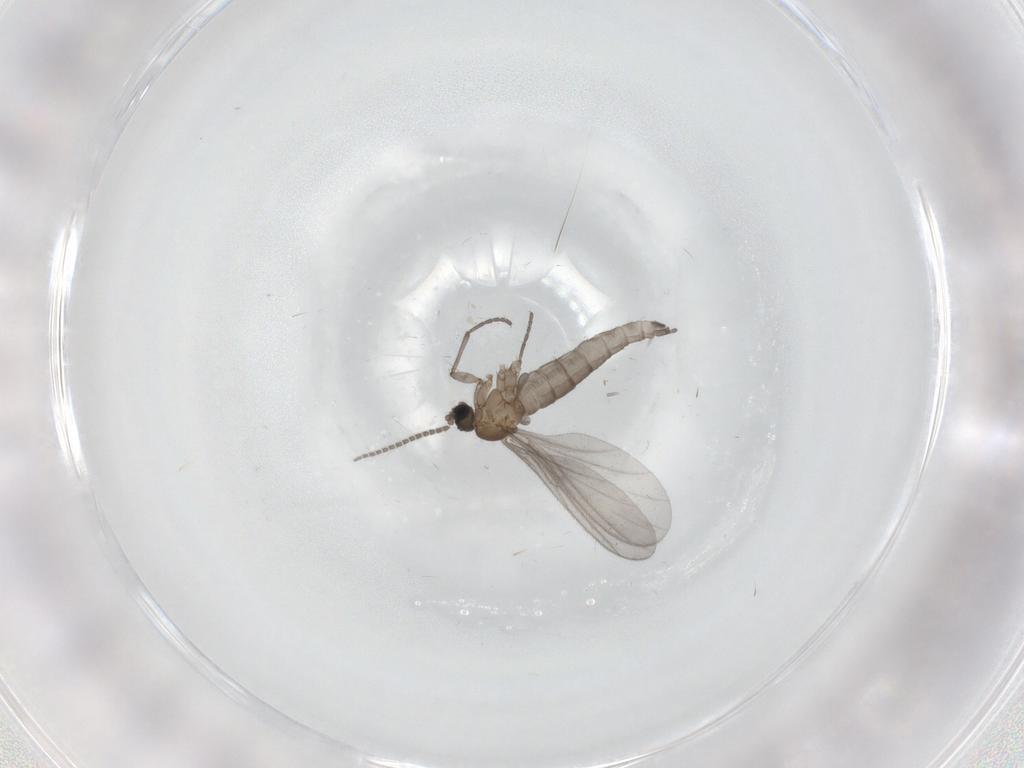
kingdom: Animalia
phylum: Arthropoda
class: Insecta
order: Diptera
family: Sciaridae
